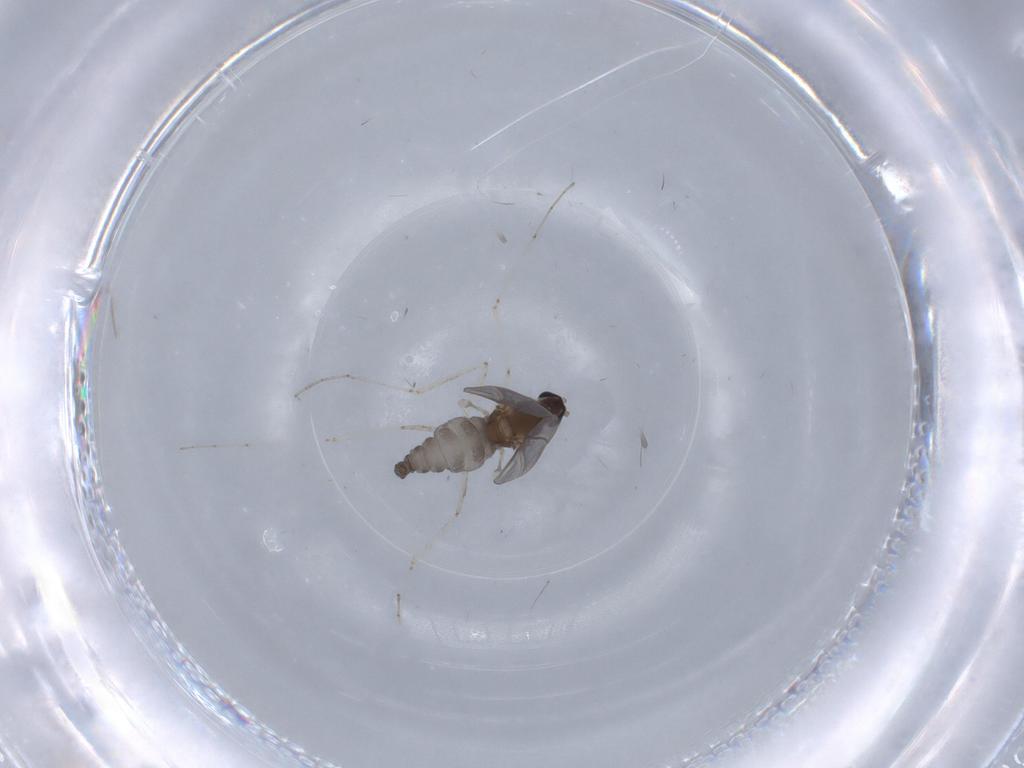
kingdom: Animalia
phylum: Arthropoda
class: Insecta
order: Diptera
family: Cecidomyiidae
